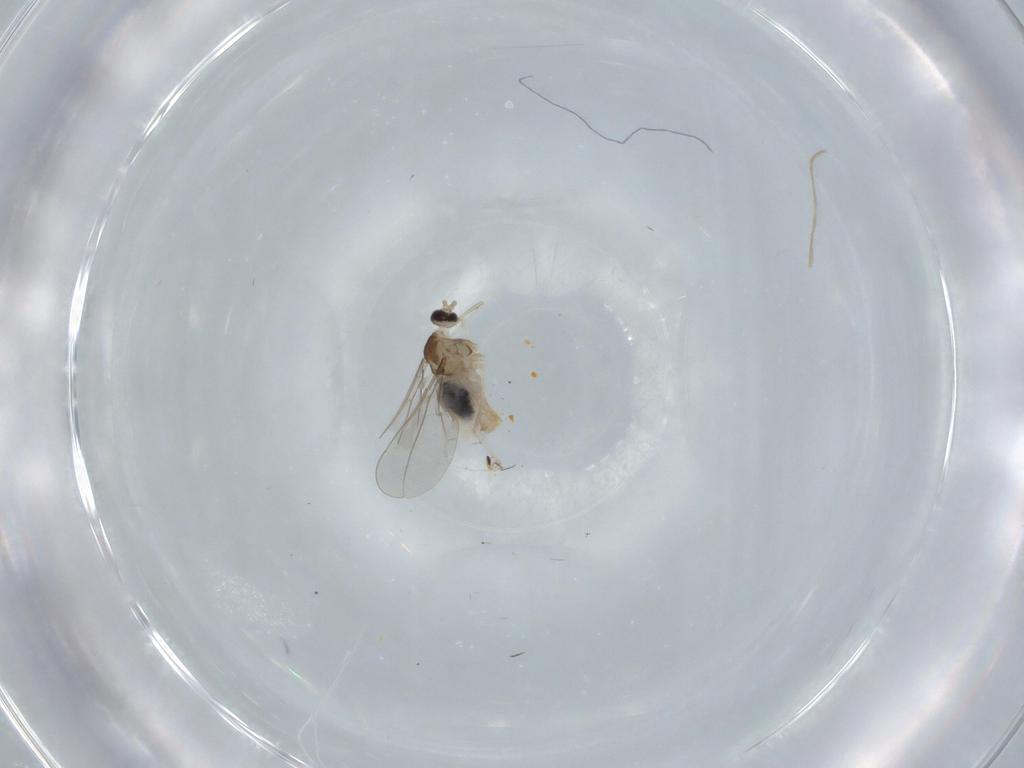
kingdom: Animalia
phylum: Arthropoda
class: Insecta
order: Diptera
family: Cecidomyiidae
